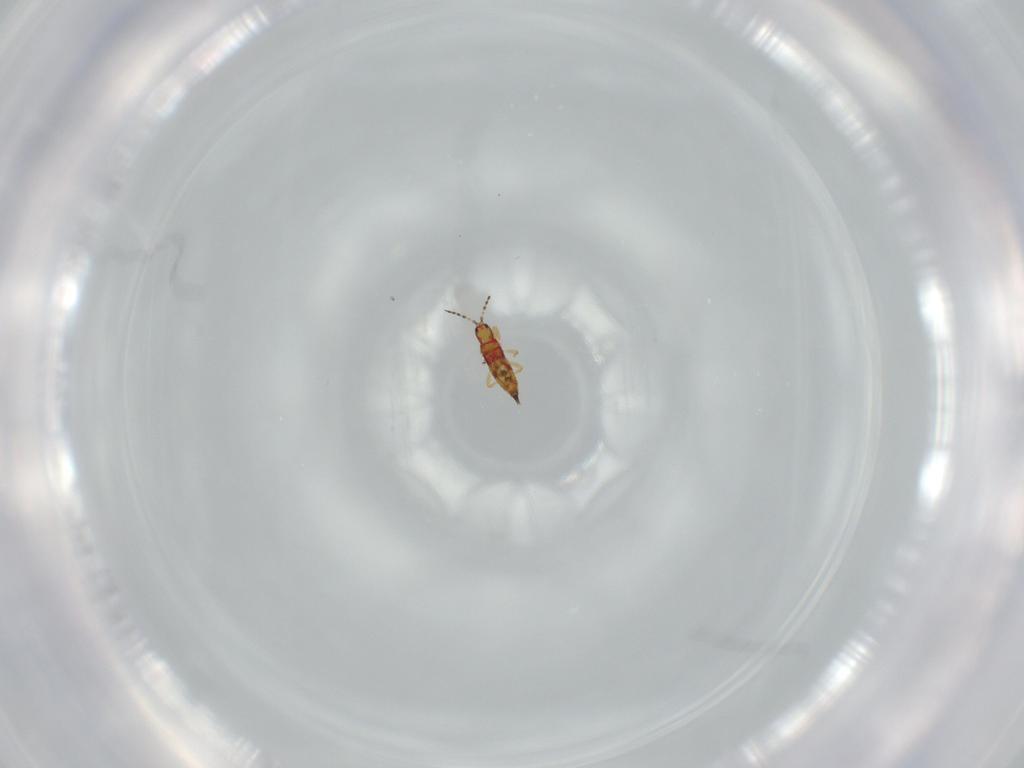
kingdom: Animalia
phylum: Arthropoda
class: Insecta
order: Thysanoptera
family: Phlaeothripidae
